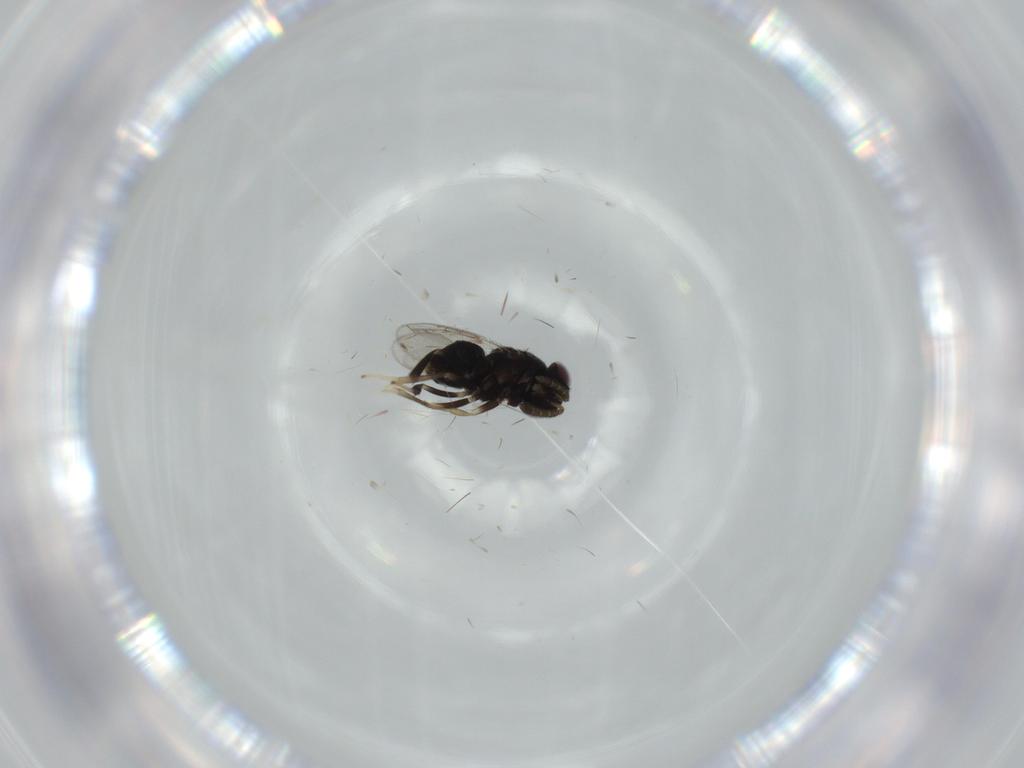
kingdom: Animalia
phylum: Arthropoda
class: Insecta
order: Hymenoptera
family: Aphelinidae
